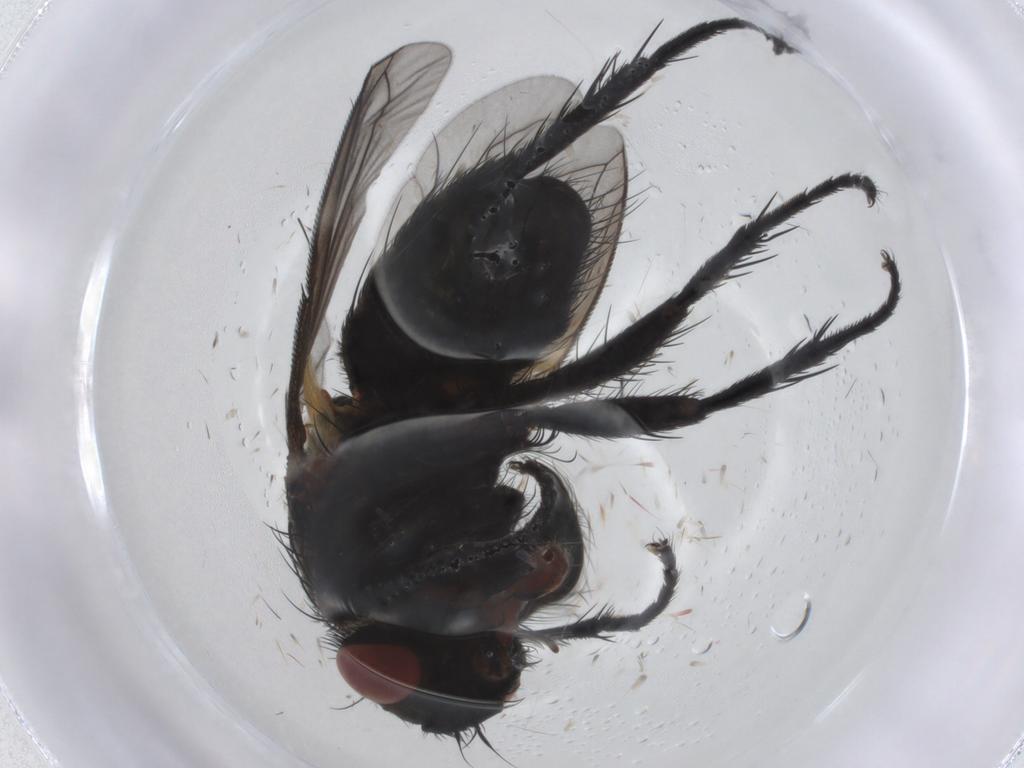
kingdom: Animalia
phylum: Arthropoda
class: Insecta
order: Diptera
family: Tachinidae
